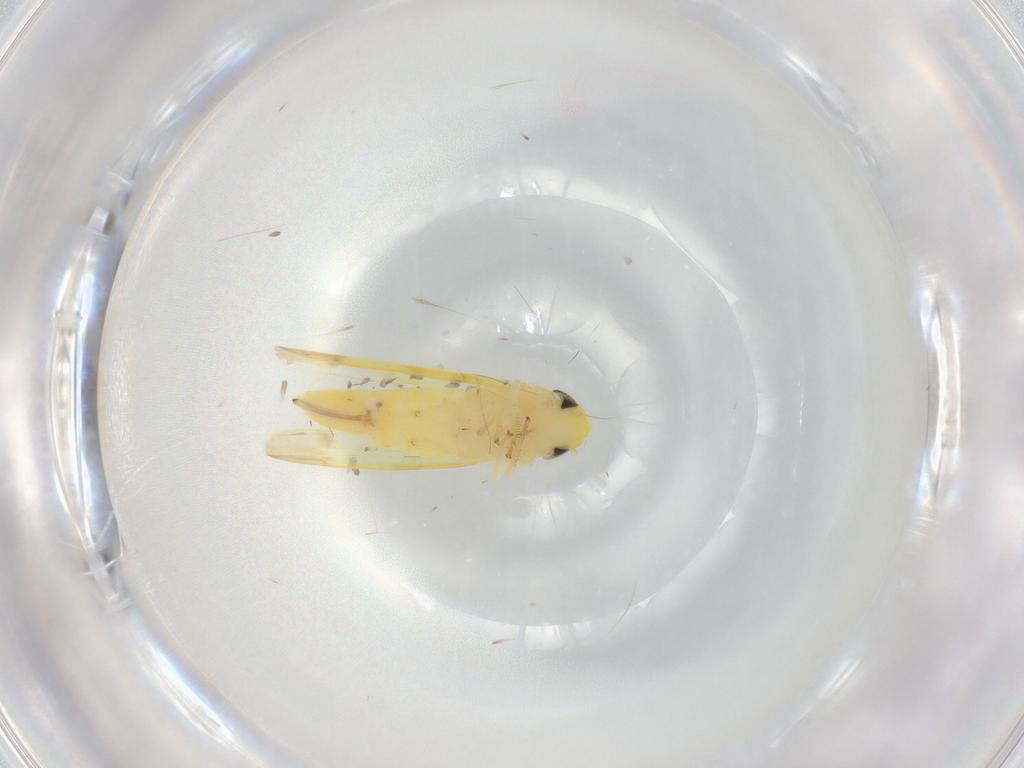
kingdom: Animalia
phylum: Arthropoda
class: Insecta
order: Hemiptera
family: Cicadellidae
